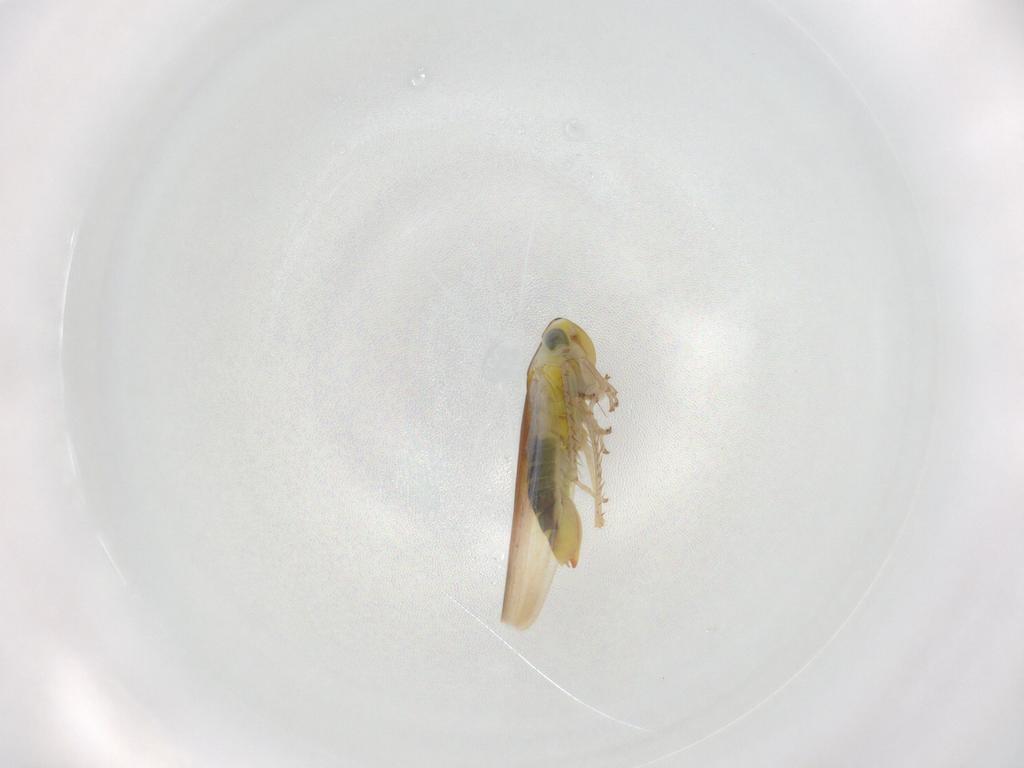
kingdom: Animalia
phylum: Arthropoda
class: Insecta
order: Hemiptera
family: Cicadellidae
